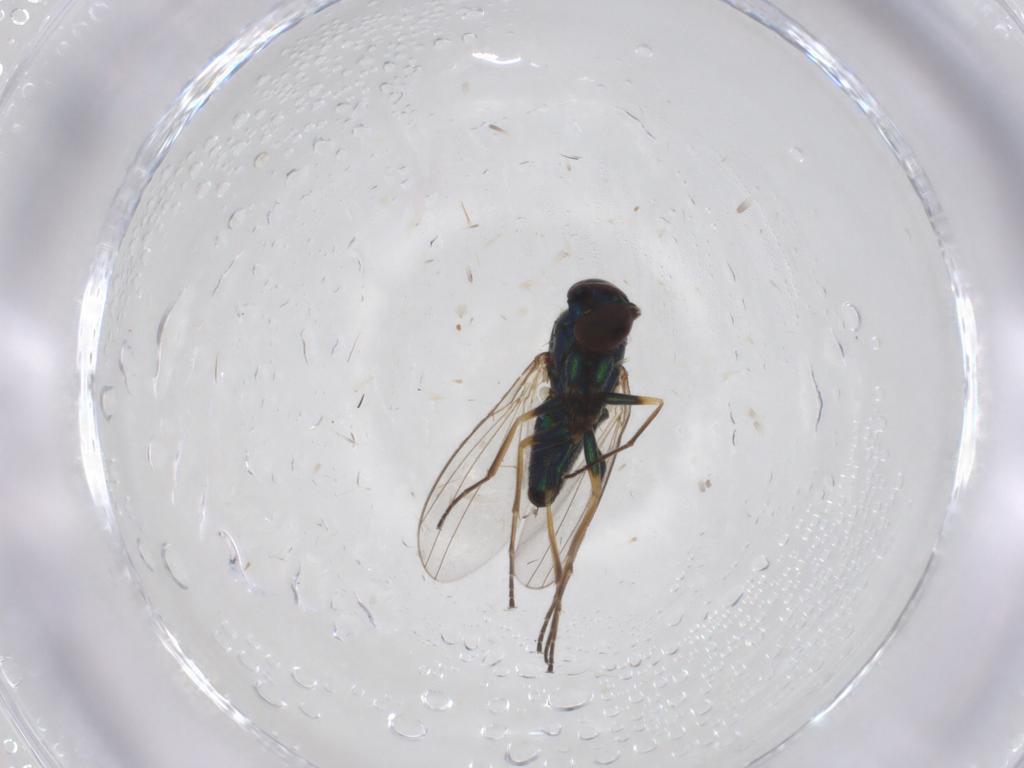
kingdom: Animalia
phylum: Arthropoda
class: Insecta
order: Diptera
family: Dolichopodidae
